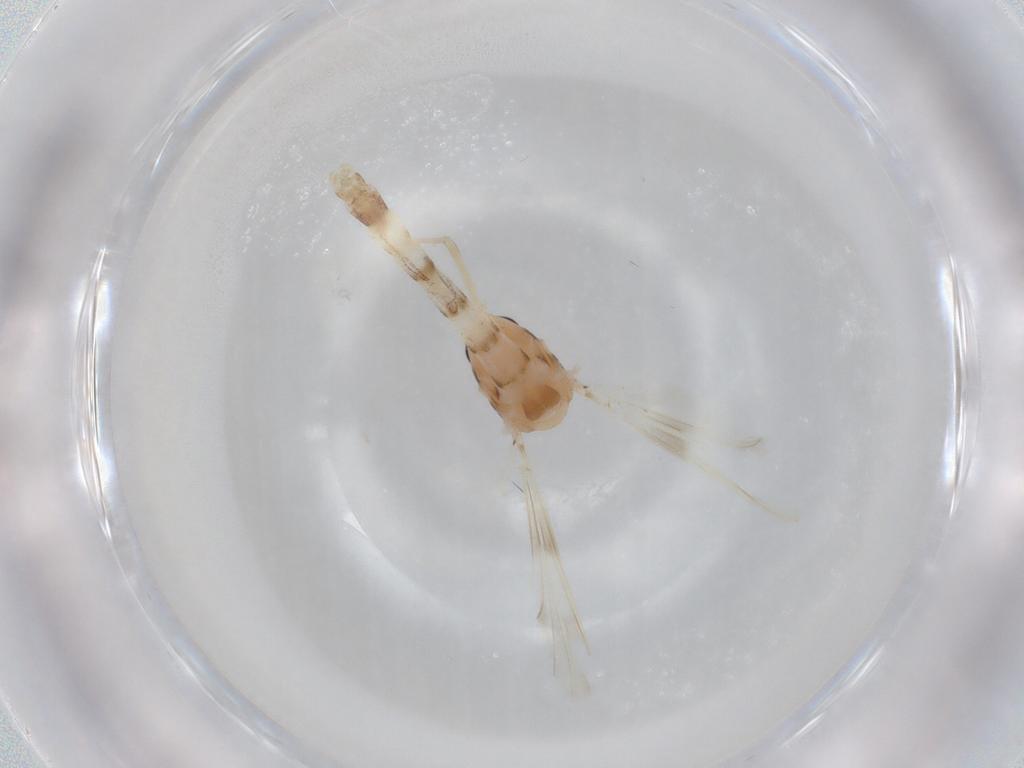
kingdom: Animalia
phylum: Arthropoda
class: Insecta
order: Diptera
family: Chironomidae
